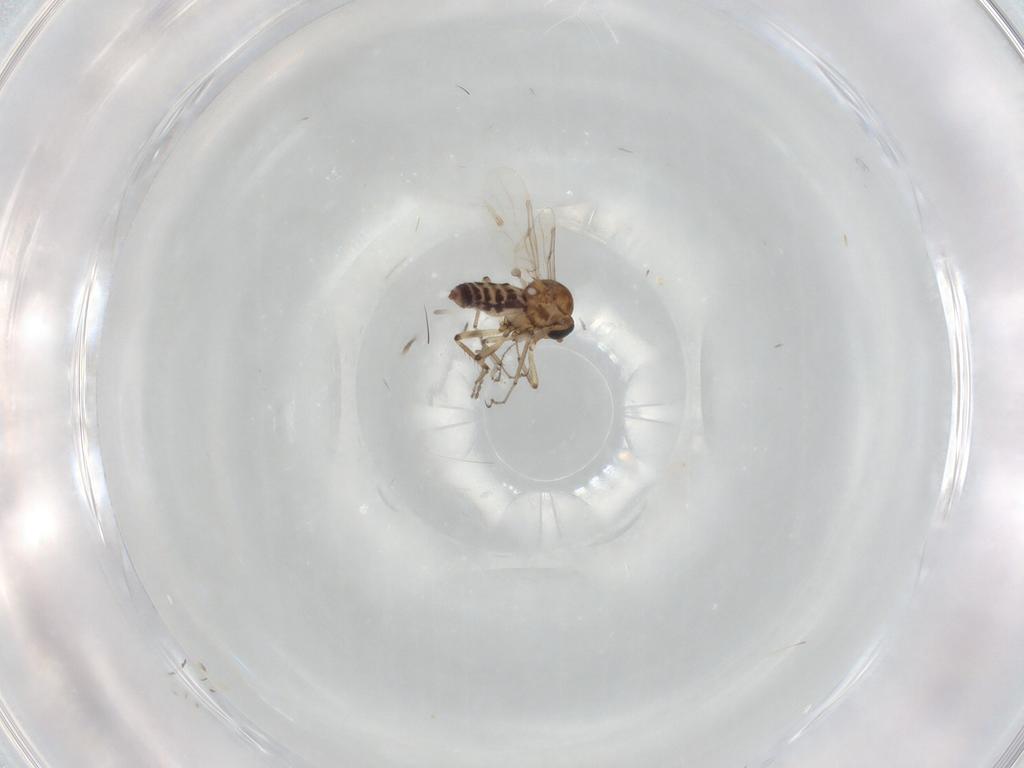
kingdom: Animalia
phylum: Arthropoda
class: Insecta
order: Diptera
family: Ceratopogonidae
